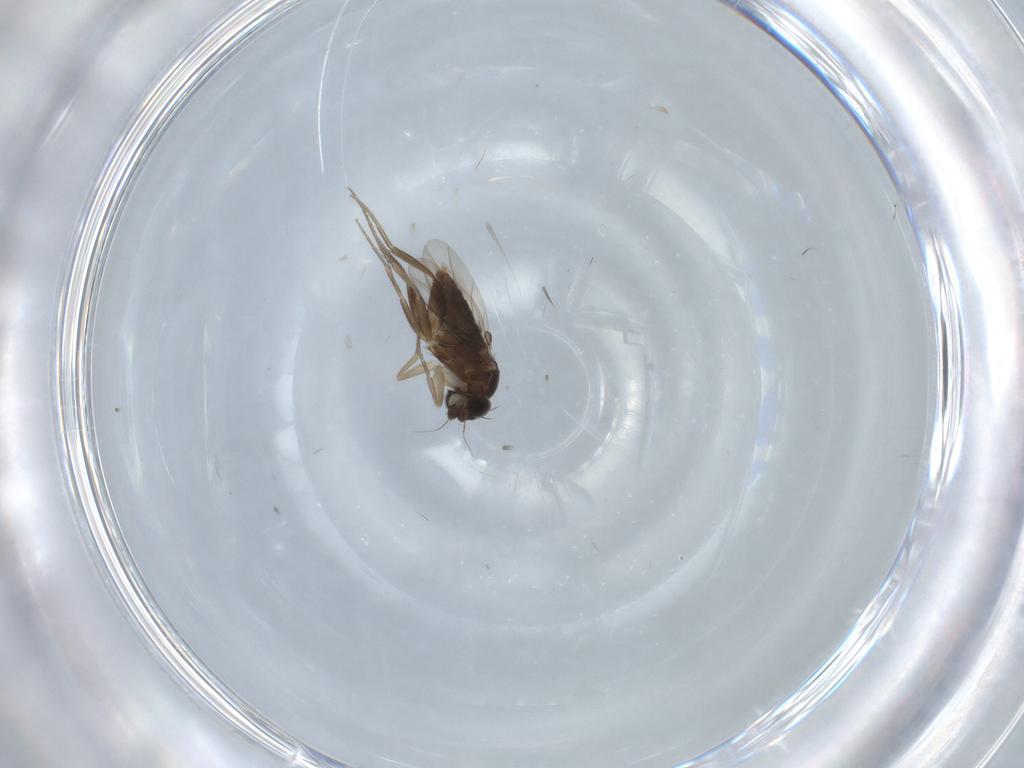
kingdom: Animalia
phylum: Arthropoda
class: Insecta
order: Diptera
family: Phoridae
